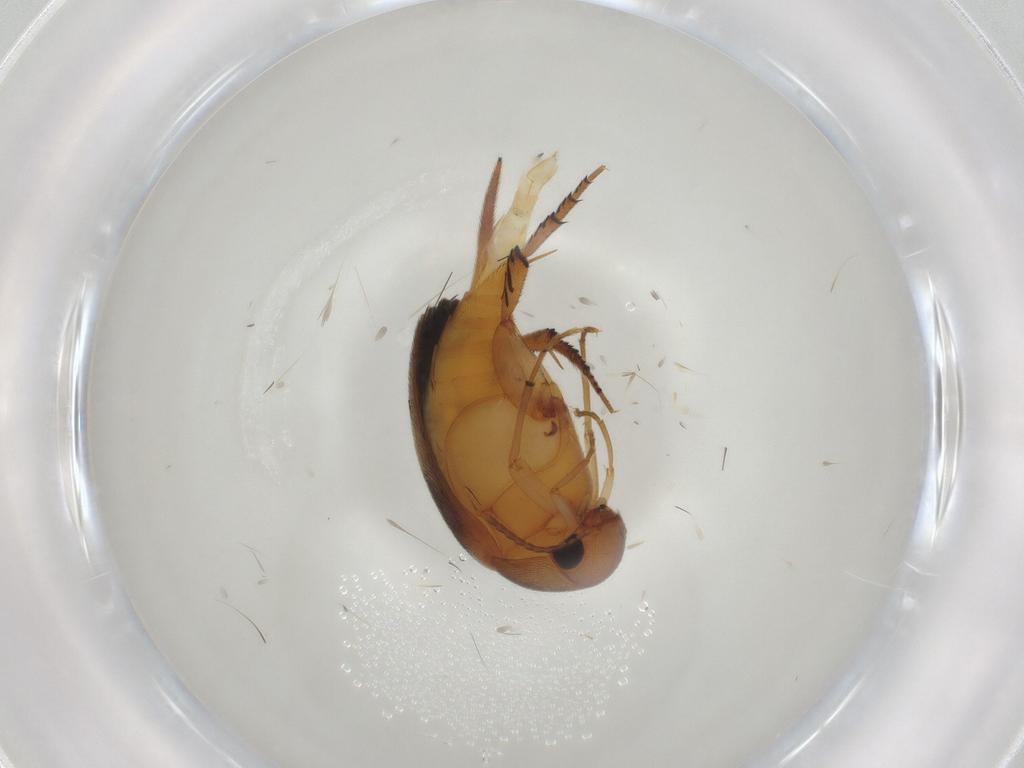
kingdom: Animalia
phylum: Arthropoda
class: Insecta
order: Coleoptera
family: Mordellidae
